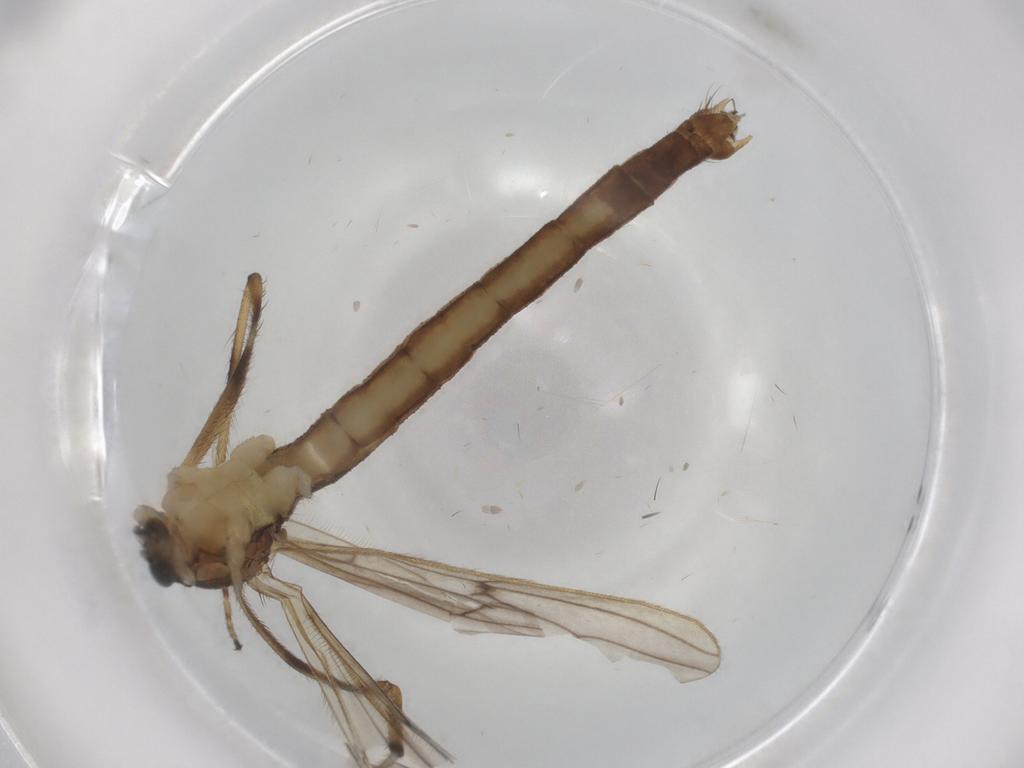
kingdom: Animalia
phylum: Arthropoda
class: Insecta
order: Diptera
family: Limoniidae
